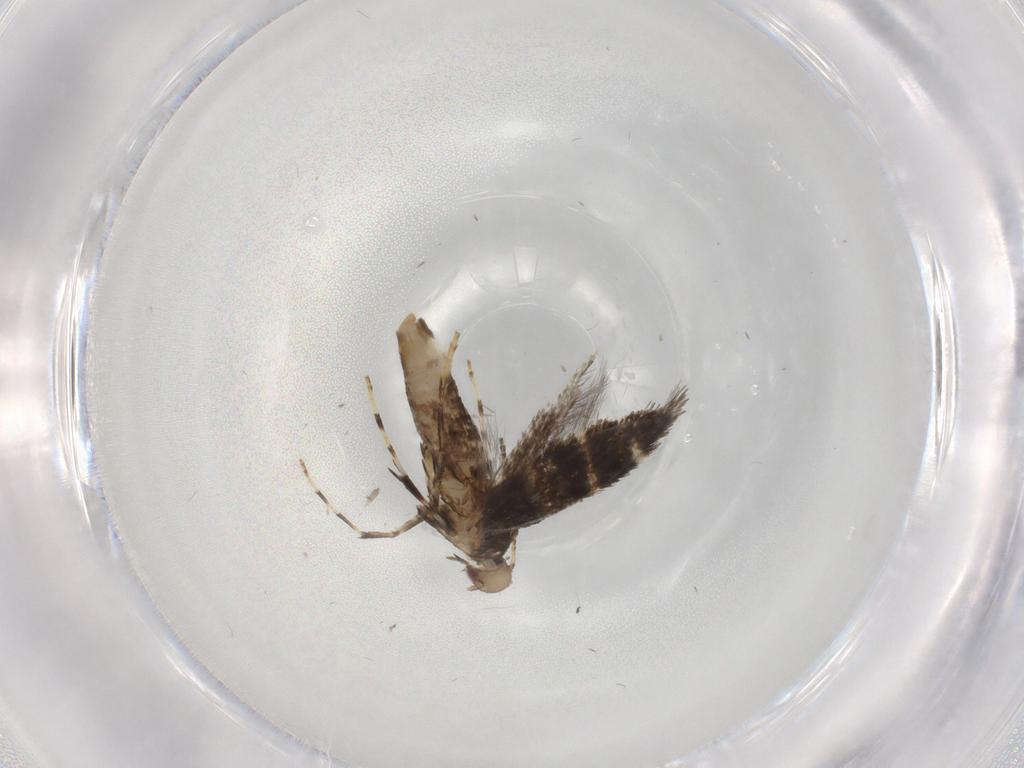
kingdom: Animalia
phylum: Arthropoda
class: Insecta
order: Lepidoptera
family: Gracillariidae
